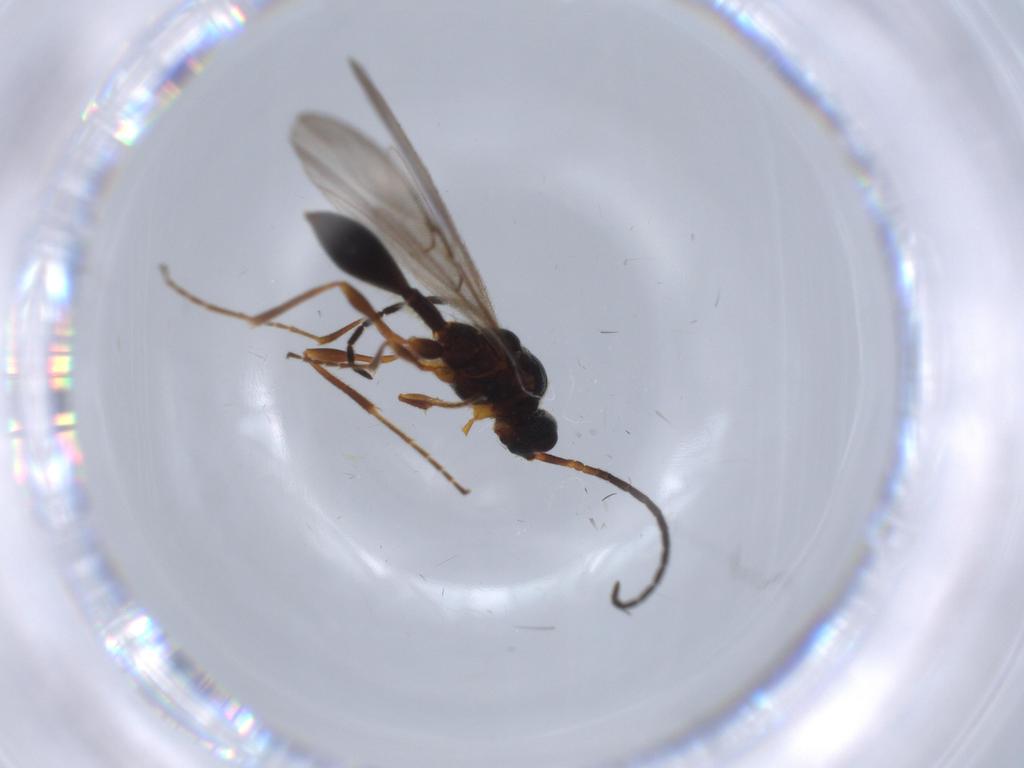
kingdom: Animalia
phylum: Arthropoda
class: Insecta
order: Hymenoptera
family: Diapriidae
